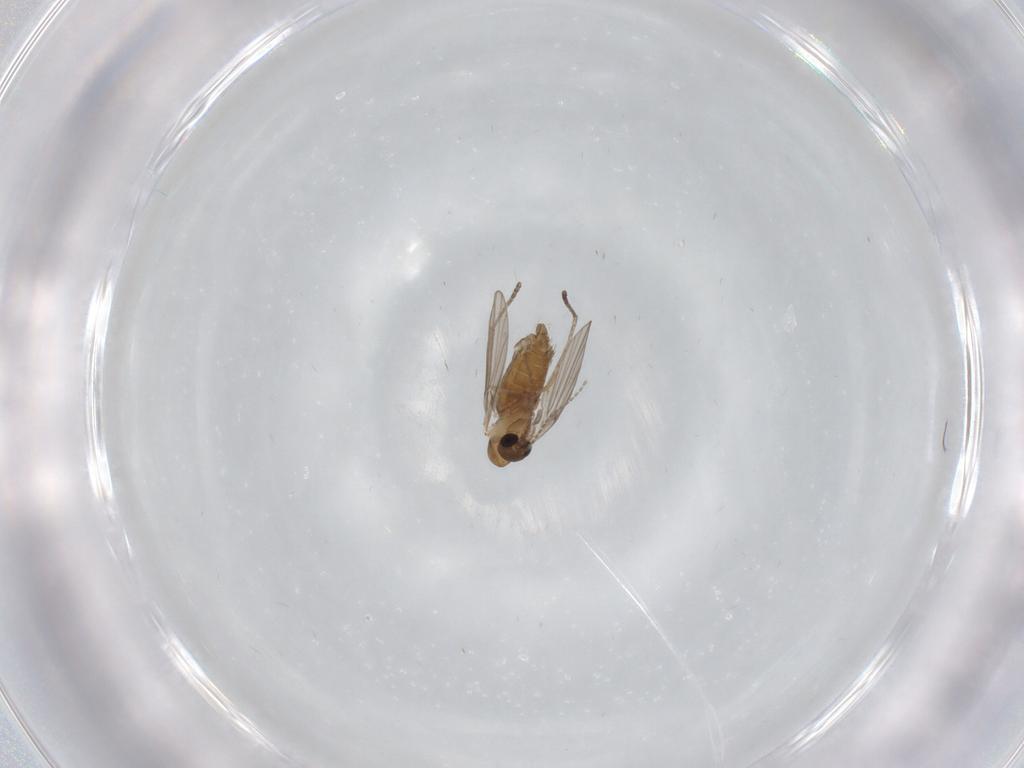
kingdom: Animalia
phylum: Arthropoda
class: Insecta
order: Diptera
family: Psychodidae
